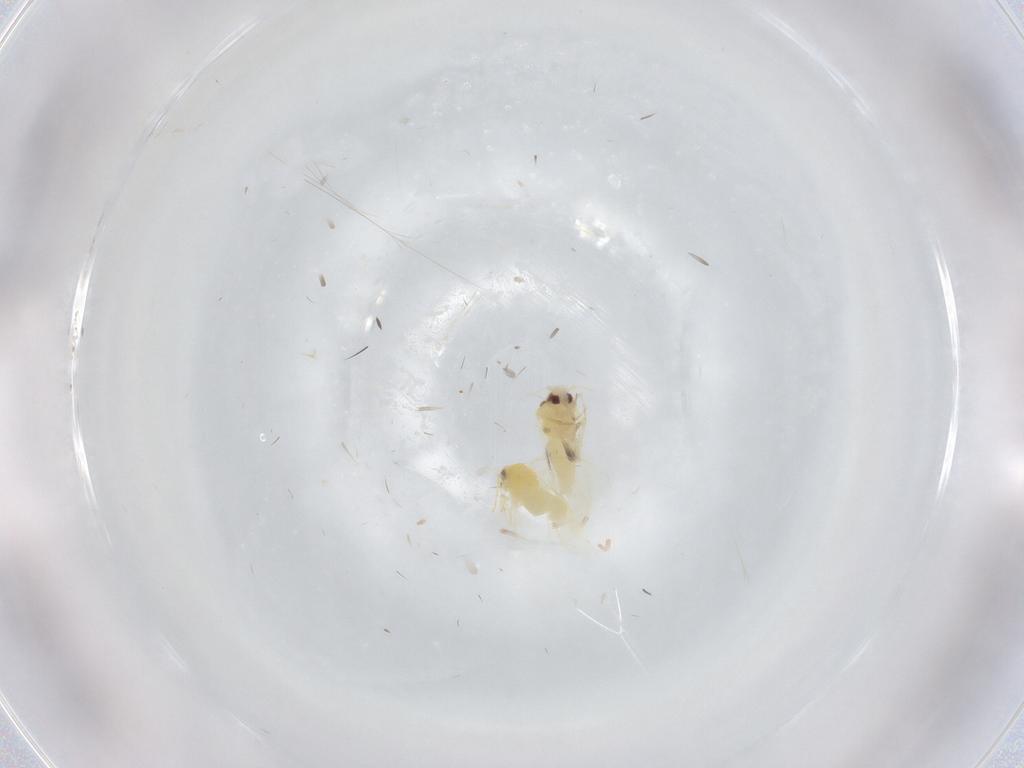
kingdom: Animalia
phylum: Arthropoda
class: Insecta
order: Hemiptera
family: Aleyrodidae
